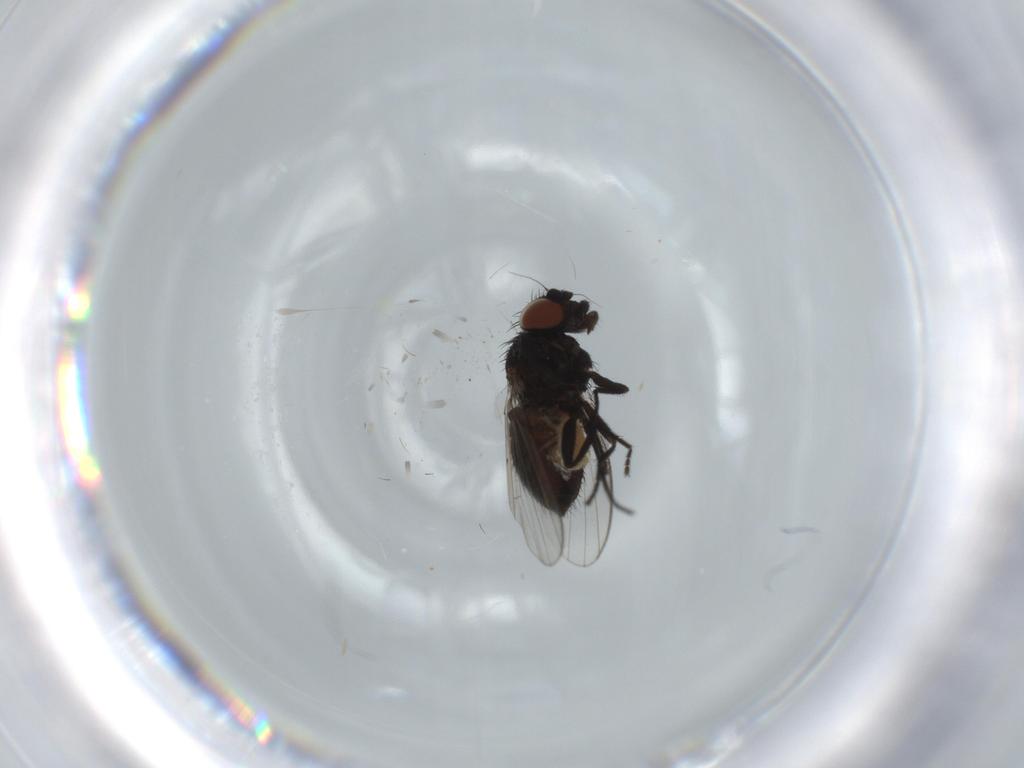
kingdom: Animalia
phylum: Arthropoda
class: Insecta
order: Diptera
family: Milichiidae
